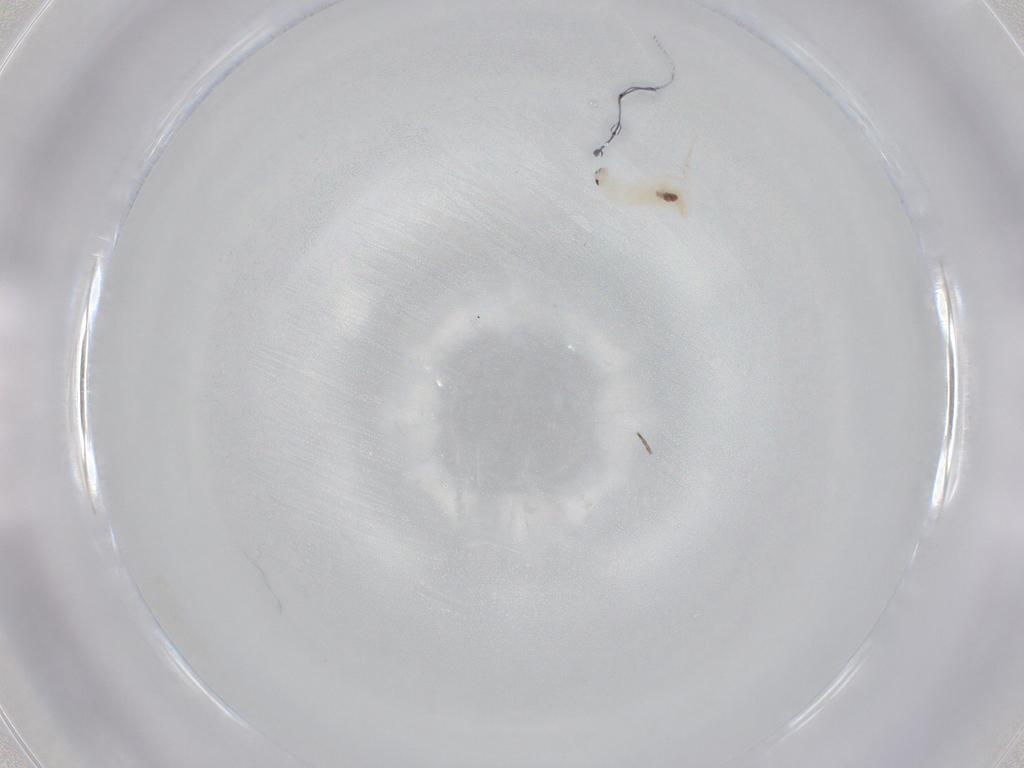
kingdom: Animalia
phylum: Arthropoda
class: Collembola
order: Entomobryomorpha
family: Entomobryidae
